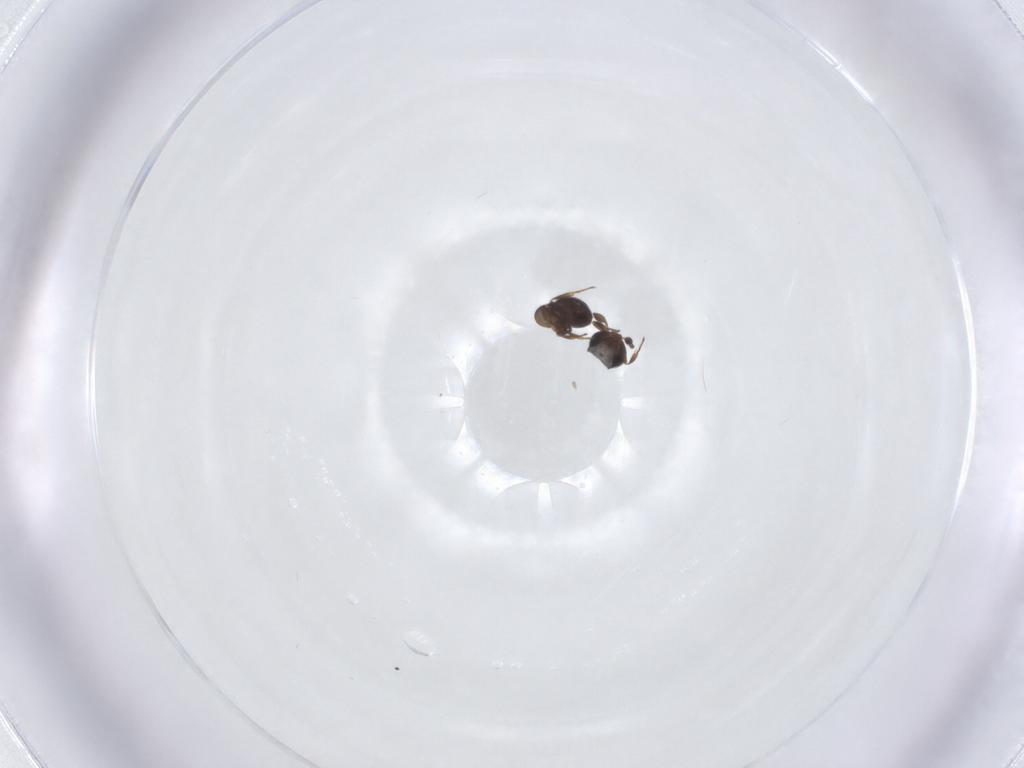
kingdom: Animalia
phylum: Arthropoda
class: Insecta
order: Hymenoptera
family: Scelionidae
